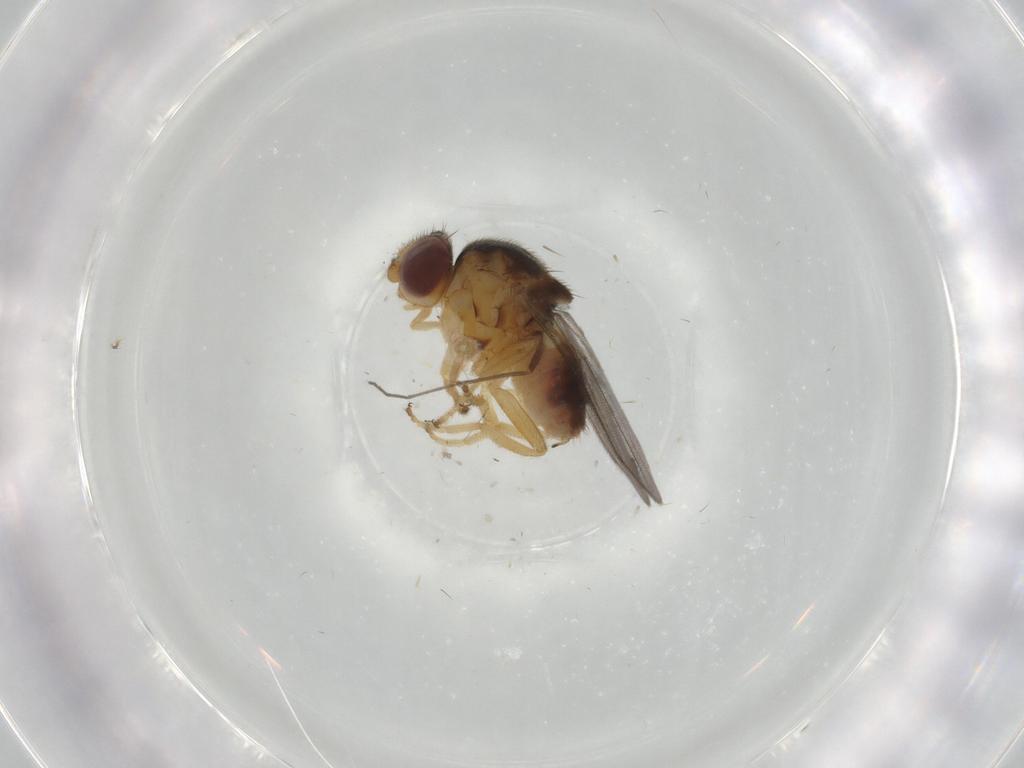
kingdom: Animalia
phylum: Arthropoda
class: Insecta
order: Diptera
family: Chloropidae
